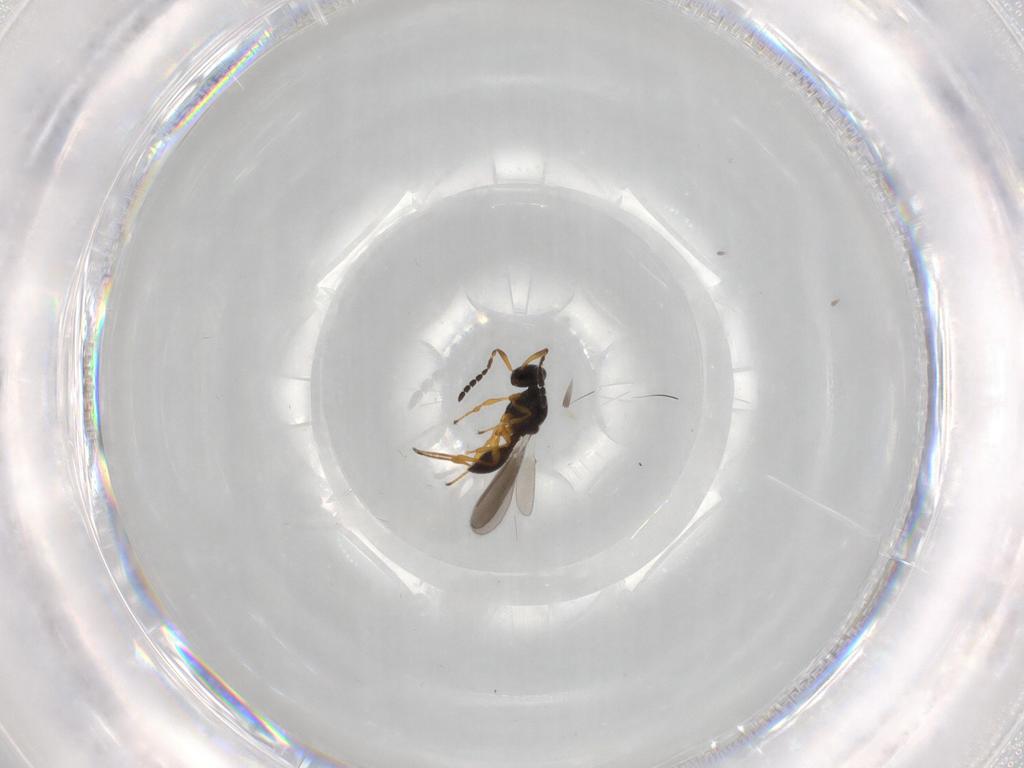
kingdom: Animalia
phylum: Arthropoda
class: Insecta
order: Hymenoptera
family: Platygastridae
